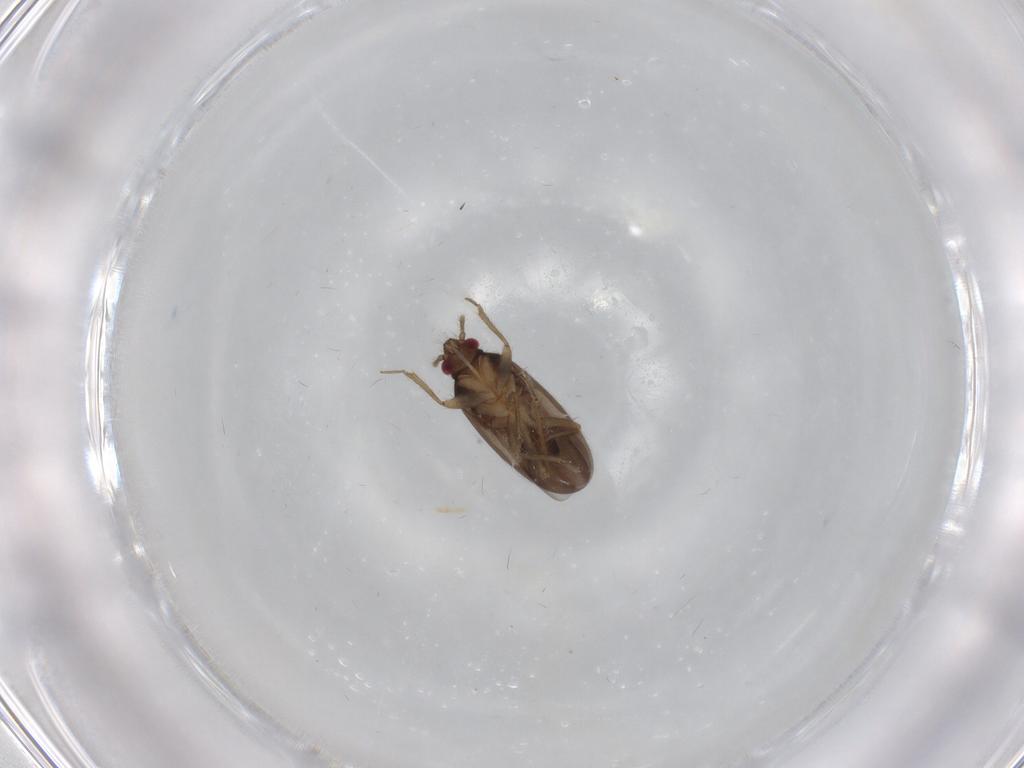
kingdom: Animalia
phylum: Arthropoda
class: Insecta
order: Hemiptera
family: Ceratocombidae
